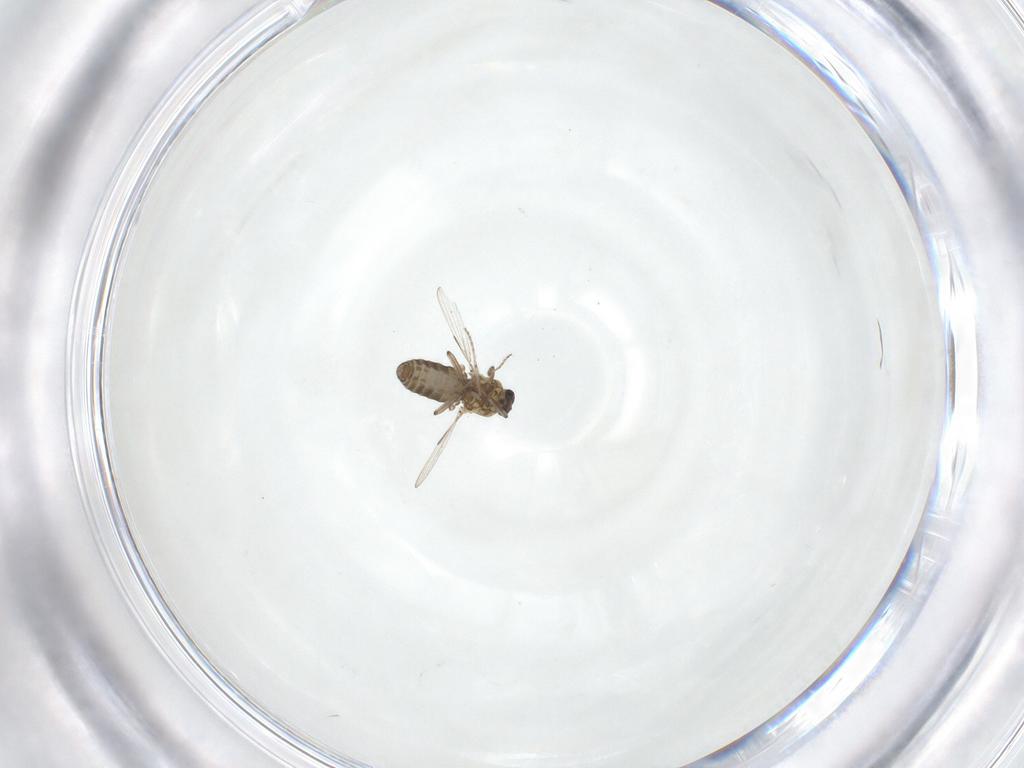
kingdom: Animalia
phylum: Arthropoda
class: Insecta
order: Diptera
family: Ceratopogonidae
